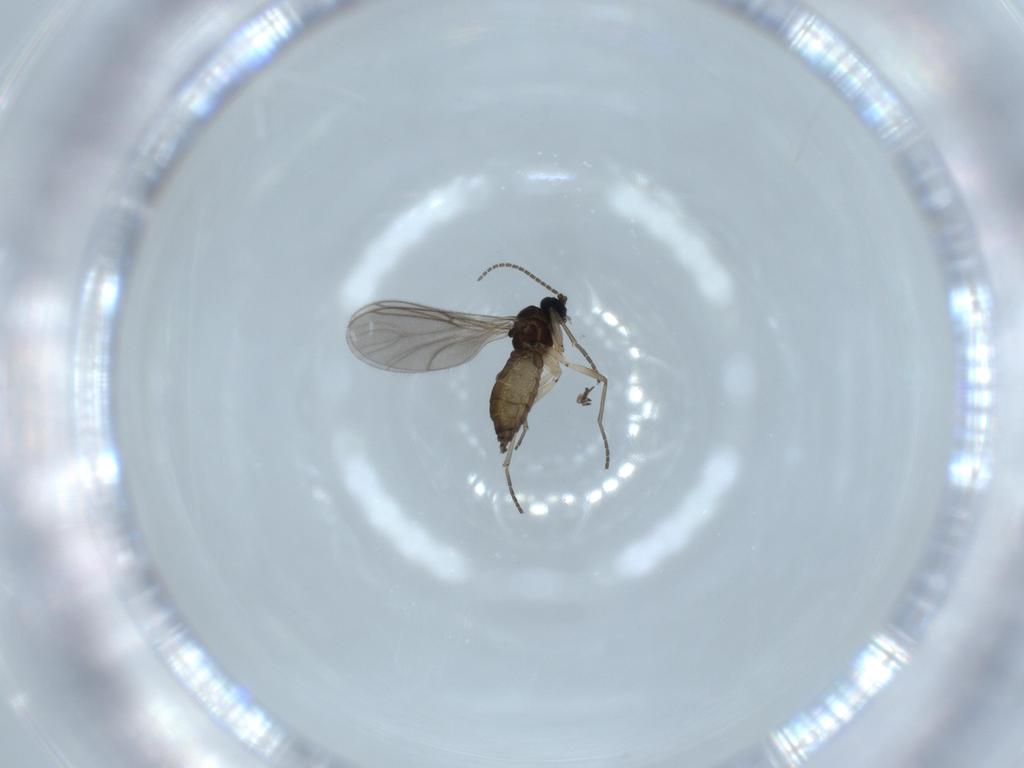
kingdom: Animalia
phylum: Arthropoda
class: Insecta
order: Diptera
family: Sciaridae
